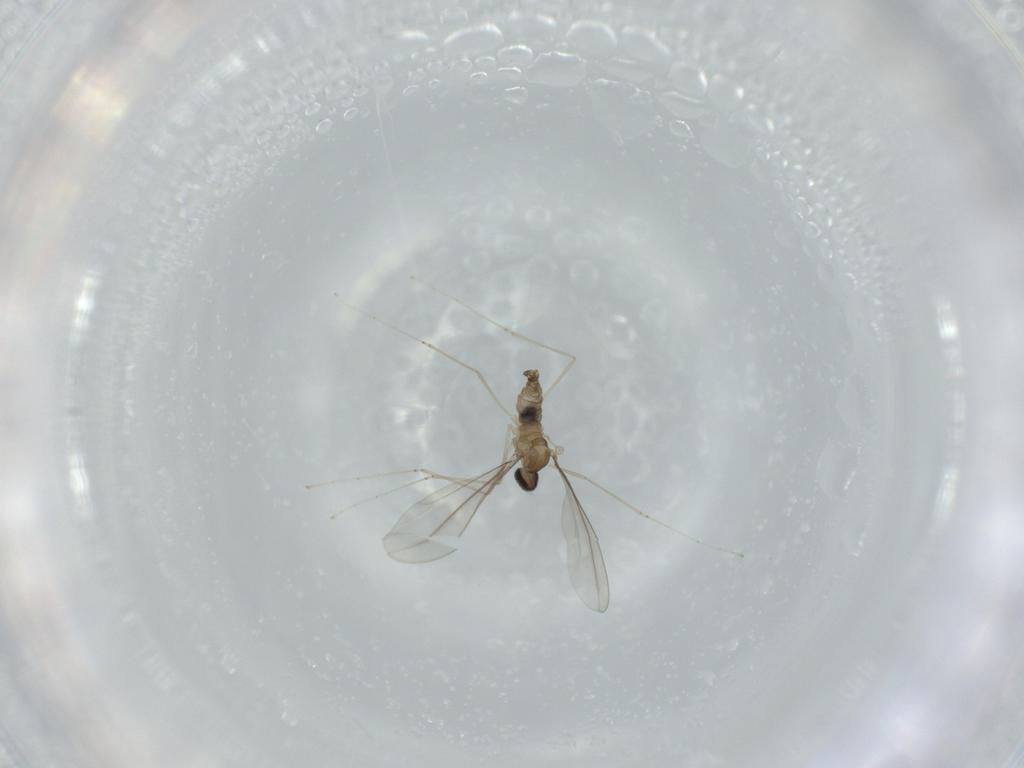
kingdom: Animalia
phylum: Arthropoda
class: Insecta
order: Diptera
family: Cecidomyiidae
